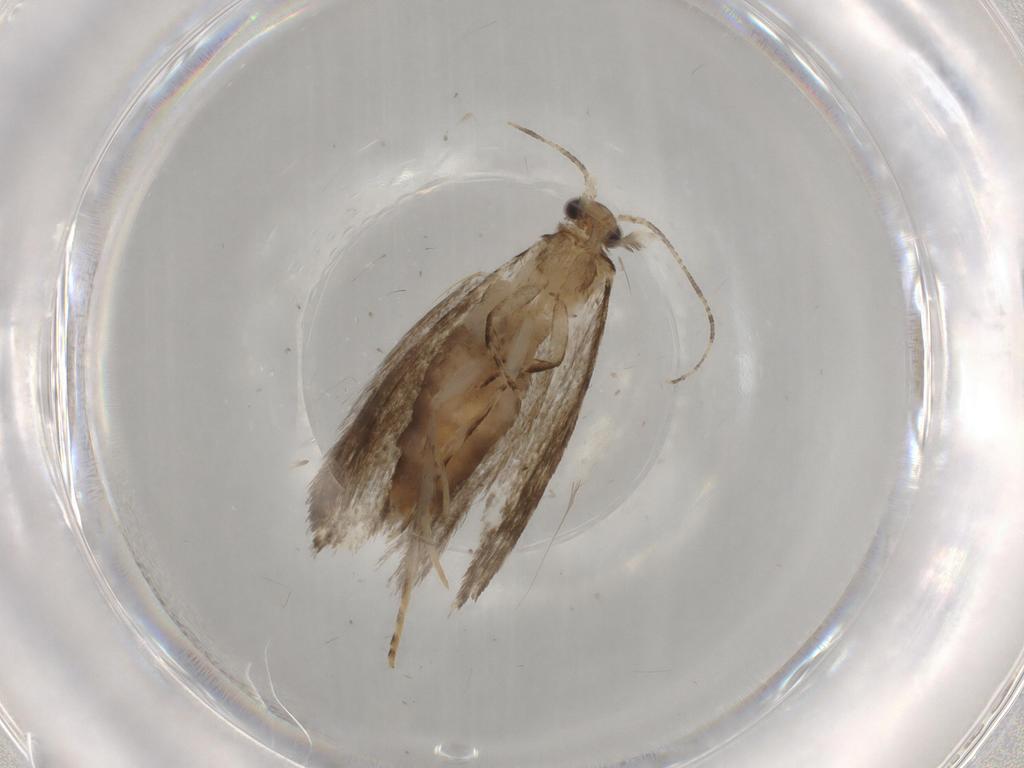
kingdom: Animalia
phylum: Arthropoda
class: Insecta
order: Lepidoptera
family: Tineidae
